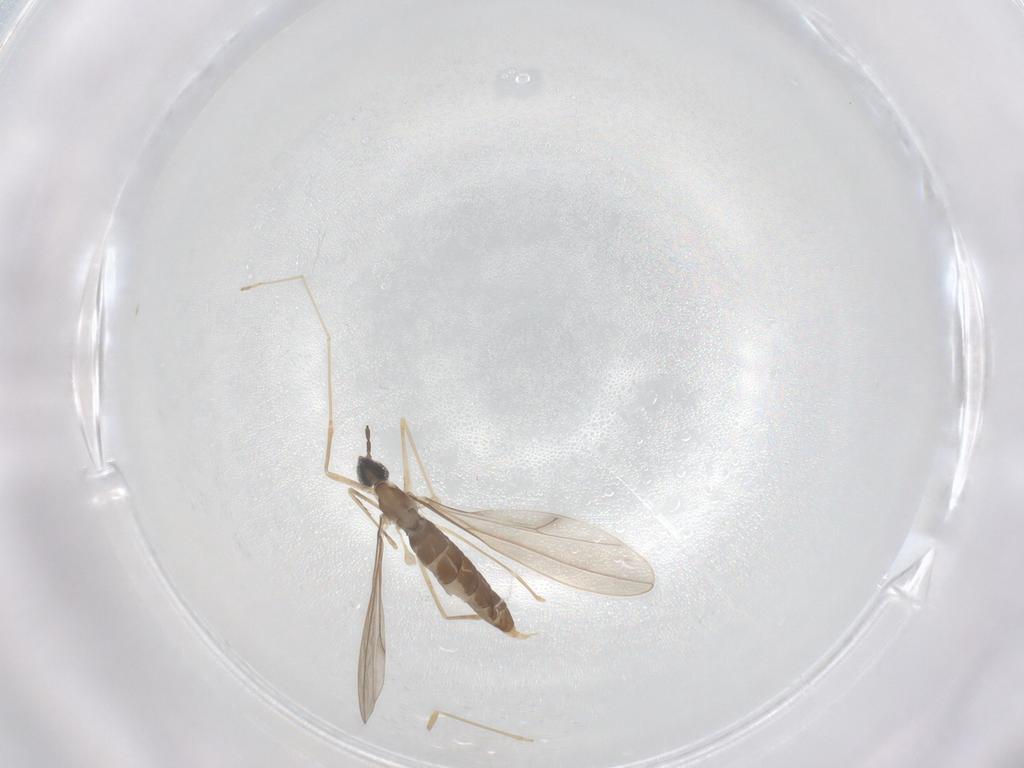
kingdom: Animalia
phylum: Arthropoda
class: Insecta
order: Diptera
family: Cecidomyiidae
